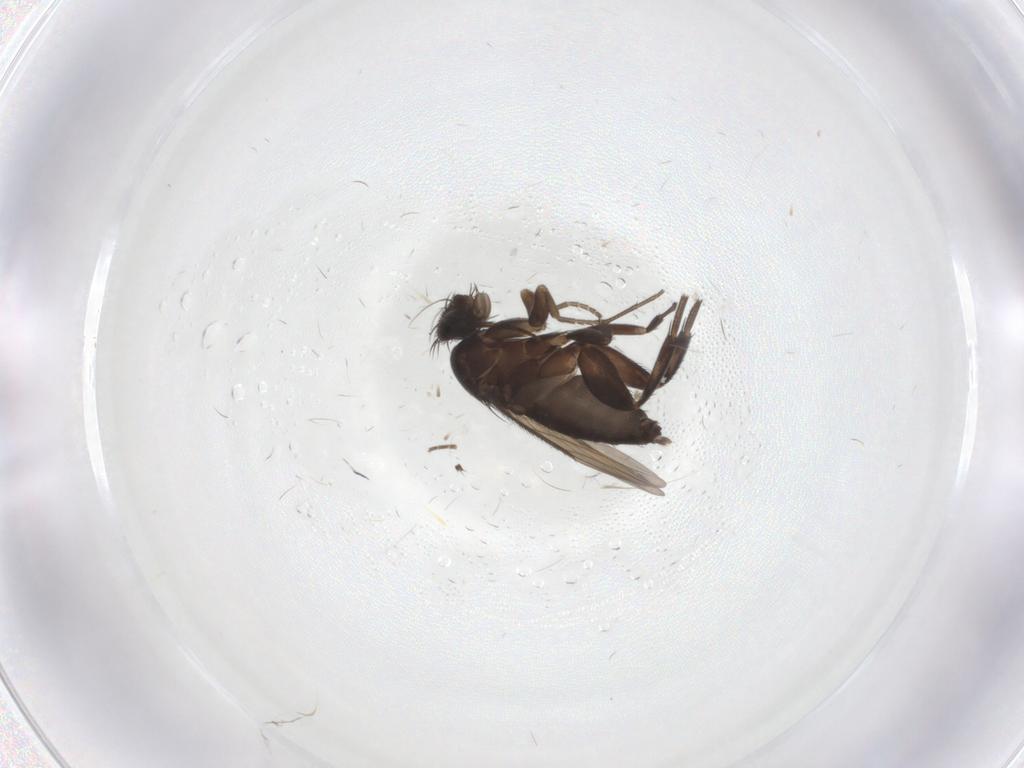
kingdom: Animalia
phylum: Arthropoda
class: Insecta
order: Diptera
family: Phoridae
